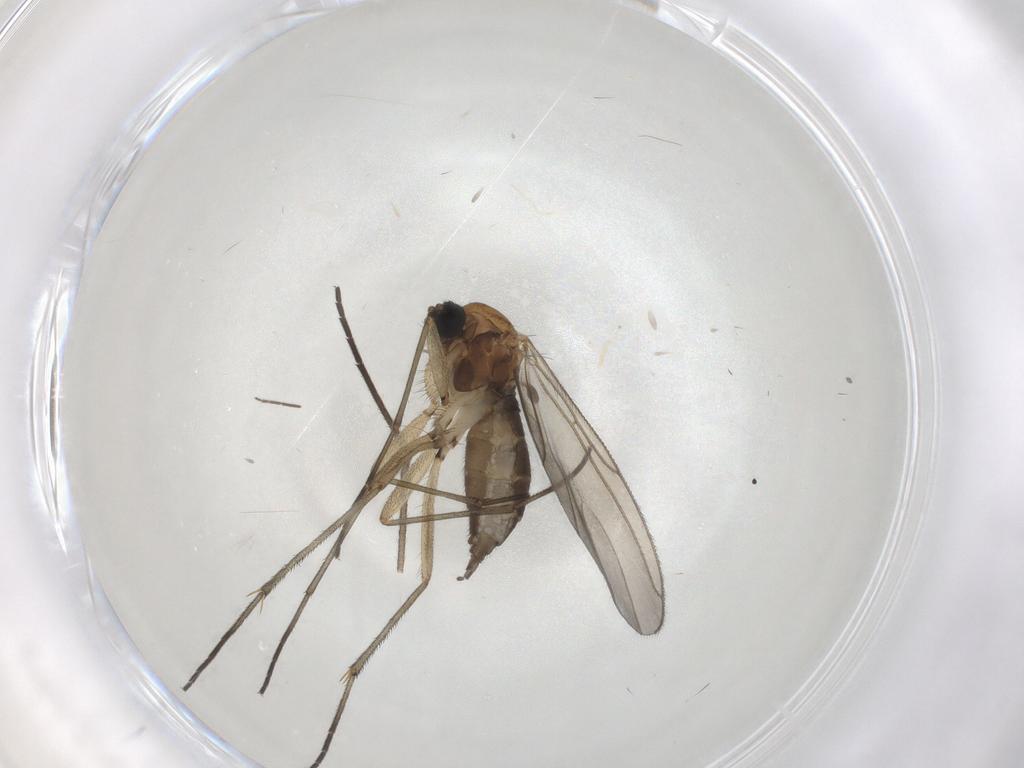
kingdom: Animalia
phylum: Arthropoda
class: Insecta
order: Diptera
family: Sciaridae
